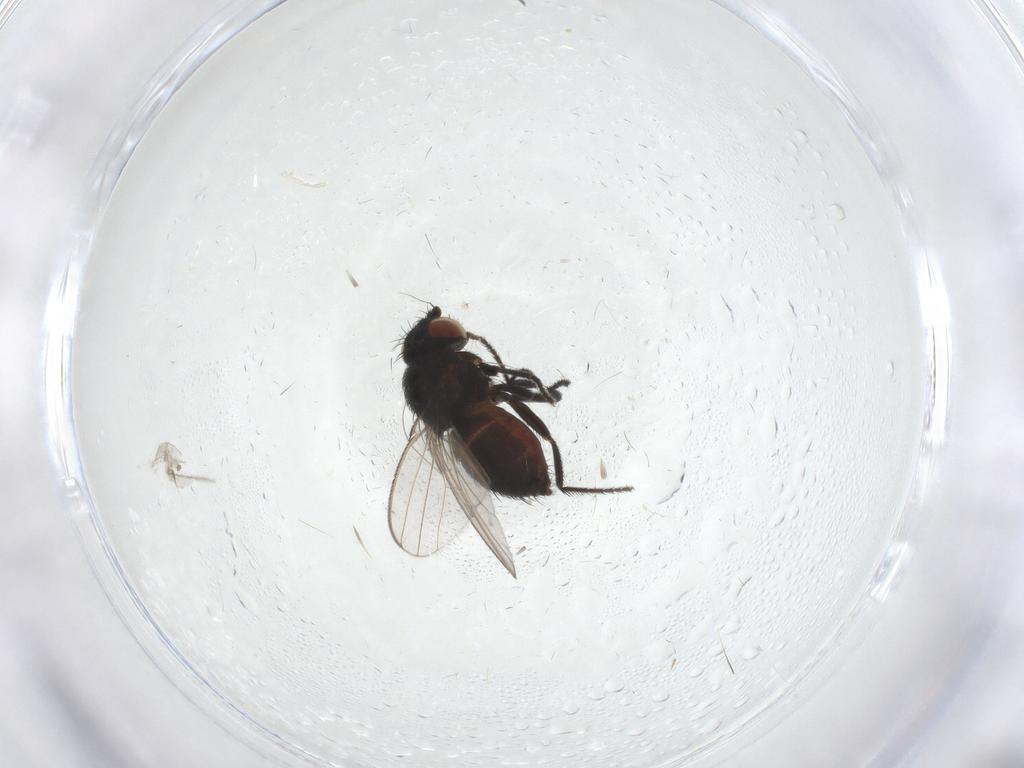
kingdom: Animalia
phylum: Arthropoda
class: Insecta
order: Diptera
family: Milichiidae
